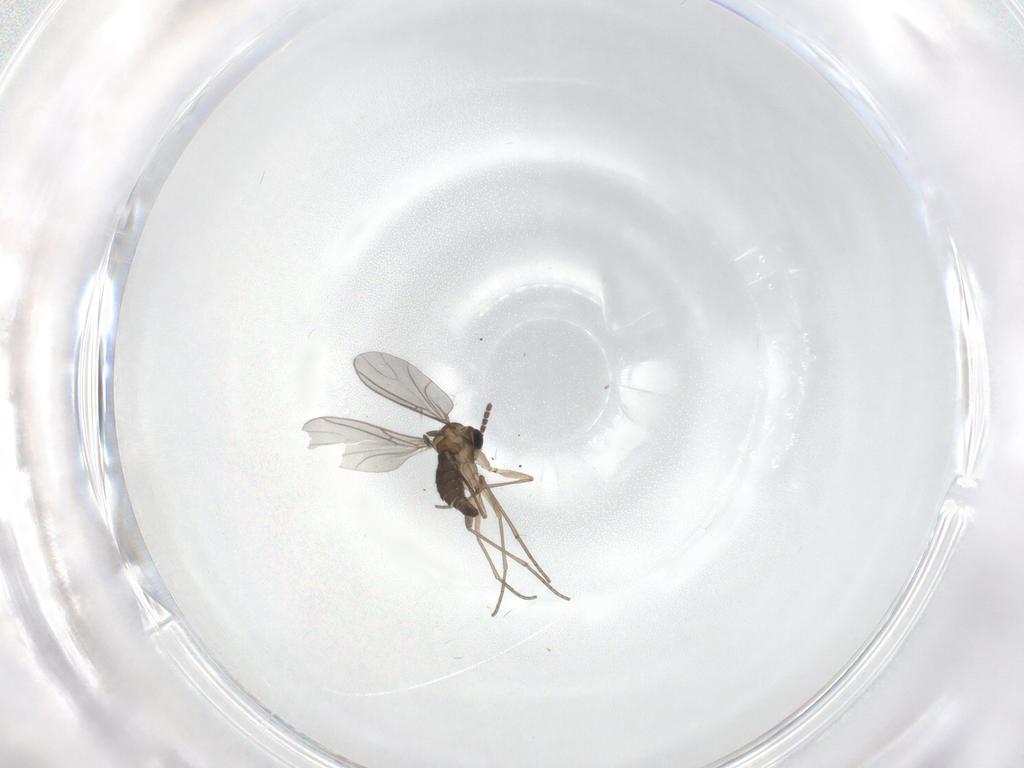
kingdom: Animalia
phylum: Arthropoda
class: Insecta
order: Diptera
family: Sciaridae
